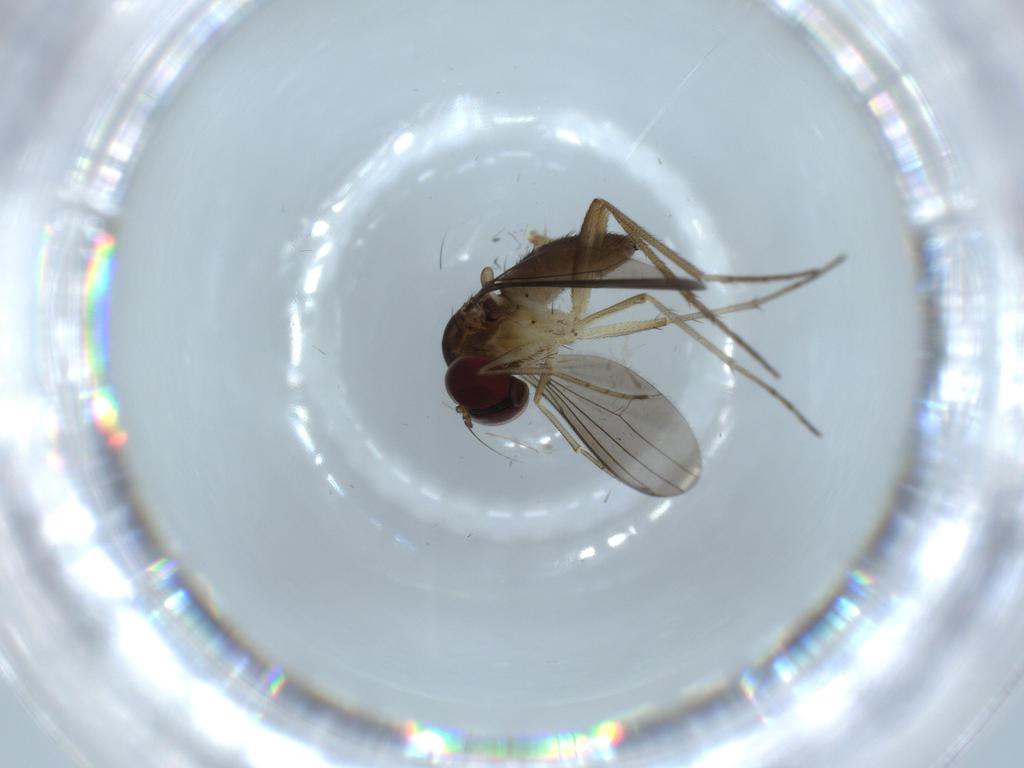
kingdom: Animalia
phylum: Arthropoda
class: Insecta
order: Diptera
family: Dolichopodidae
